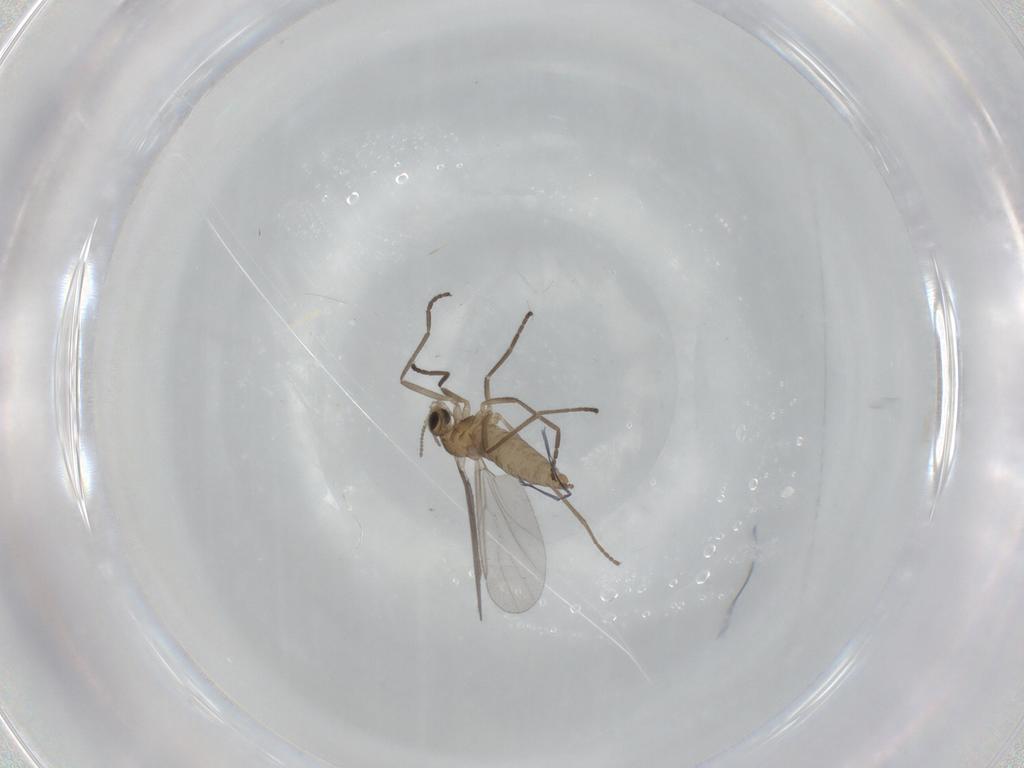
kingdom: Animalia
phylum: Arthropoda
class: Insecta
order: Diptera
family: Cecidomyiidae
